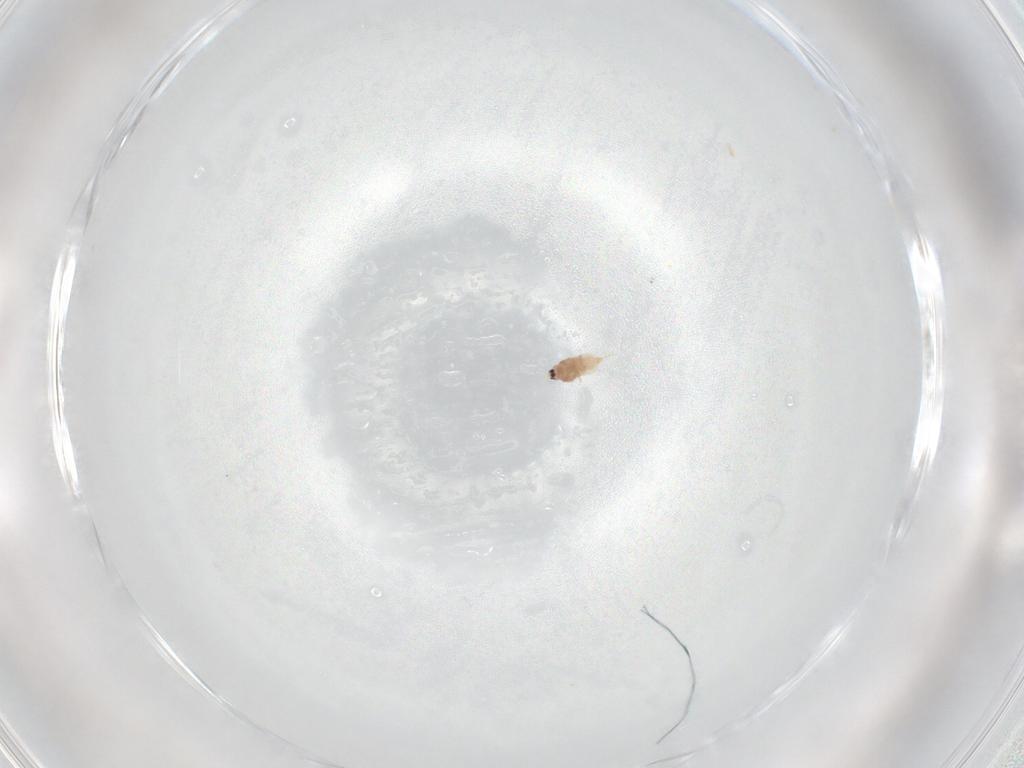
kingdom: Animalia
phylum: Arthropoda
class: Insecta
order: Hemiptera
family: Diaspididae
